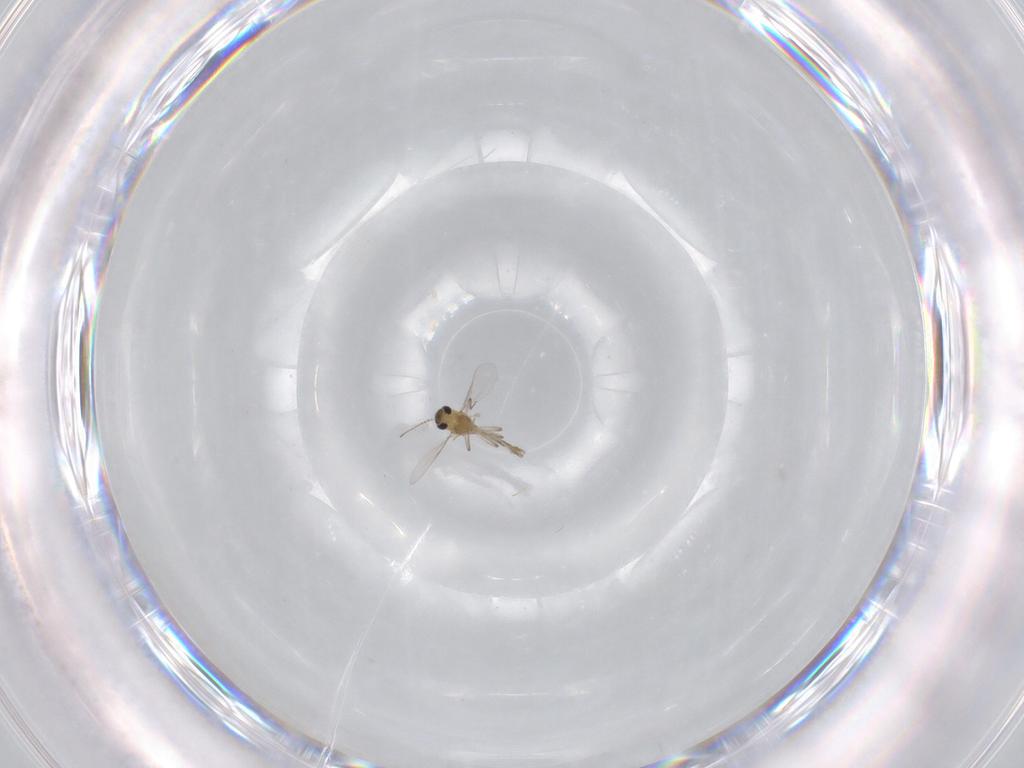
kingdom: Animalia
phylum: Arthropoda
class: Insecta
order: Diptera
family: Chironomidae
